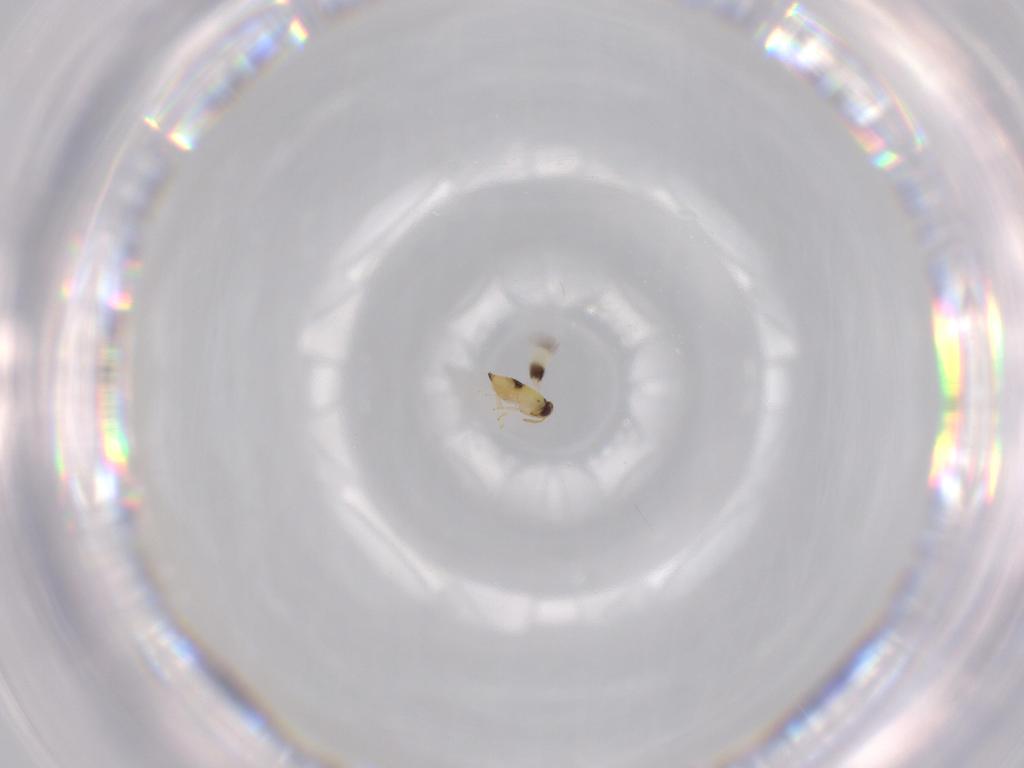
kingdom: Animalia
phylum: Arthropoda
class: Insecta
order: Hymenoptera
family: Signiphoridae
